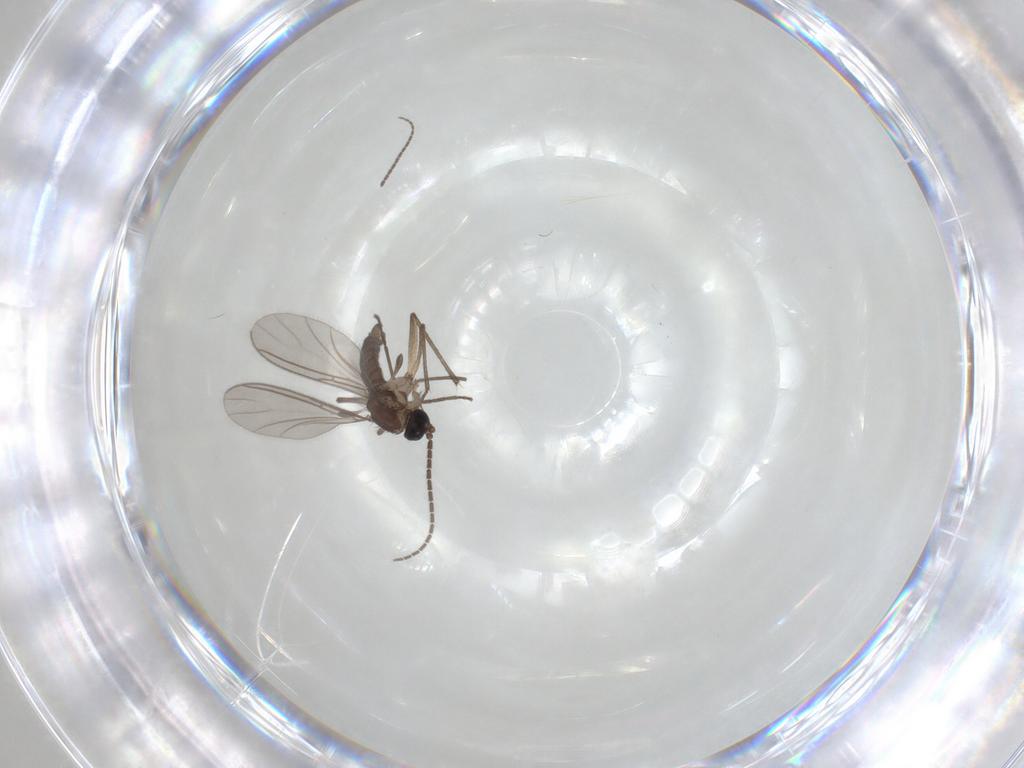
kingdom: Animalia
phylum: Arthropoda
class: Insecta
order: Diptera
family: Sciaridae
